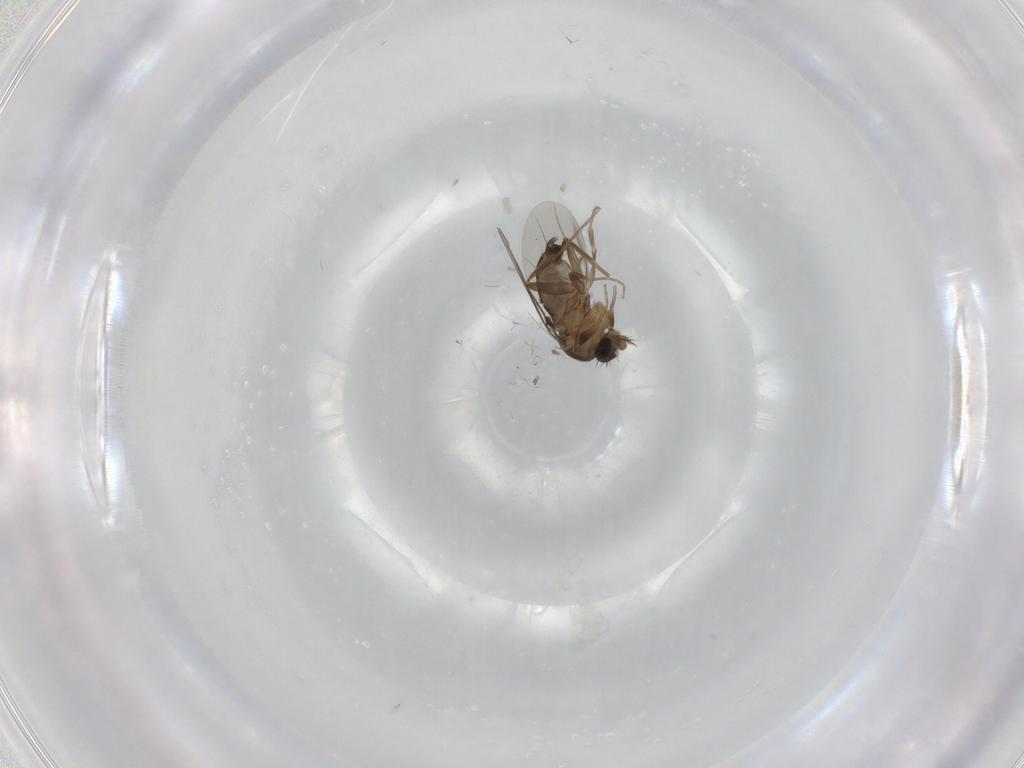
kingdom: Animalia
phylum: Arthropoda
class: Insecta
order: Diptera
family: Phoridae
